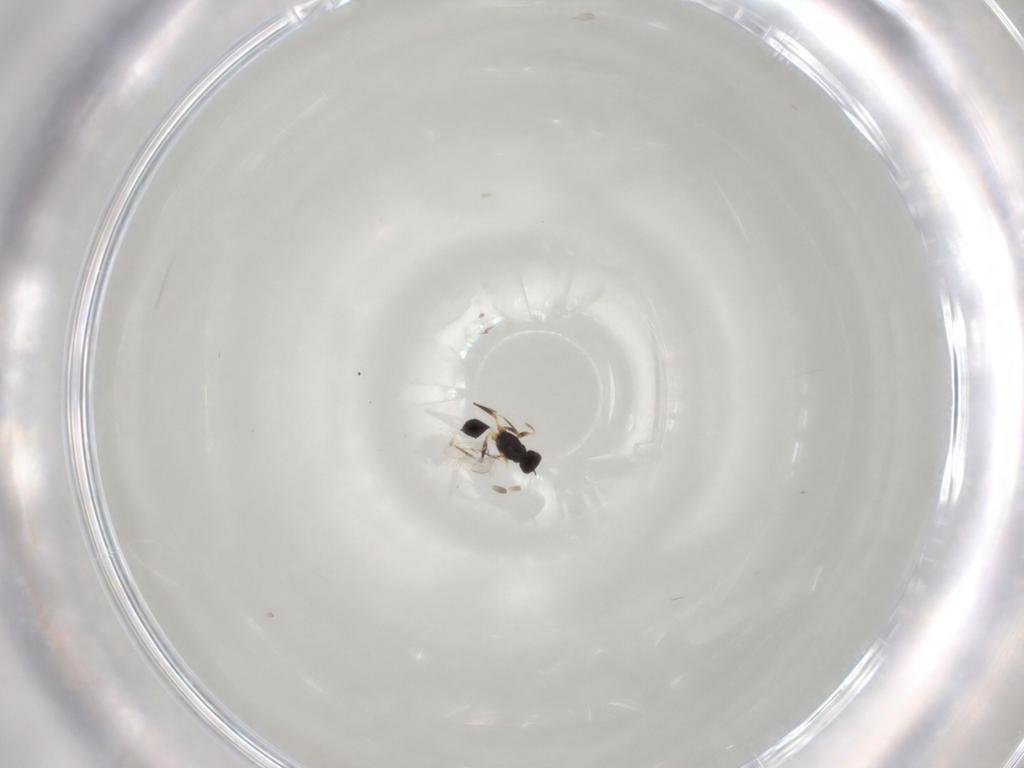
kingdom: Animalia
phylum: Arthropoda
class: Insecta
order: Hymenoptera
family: Mymaridae
